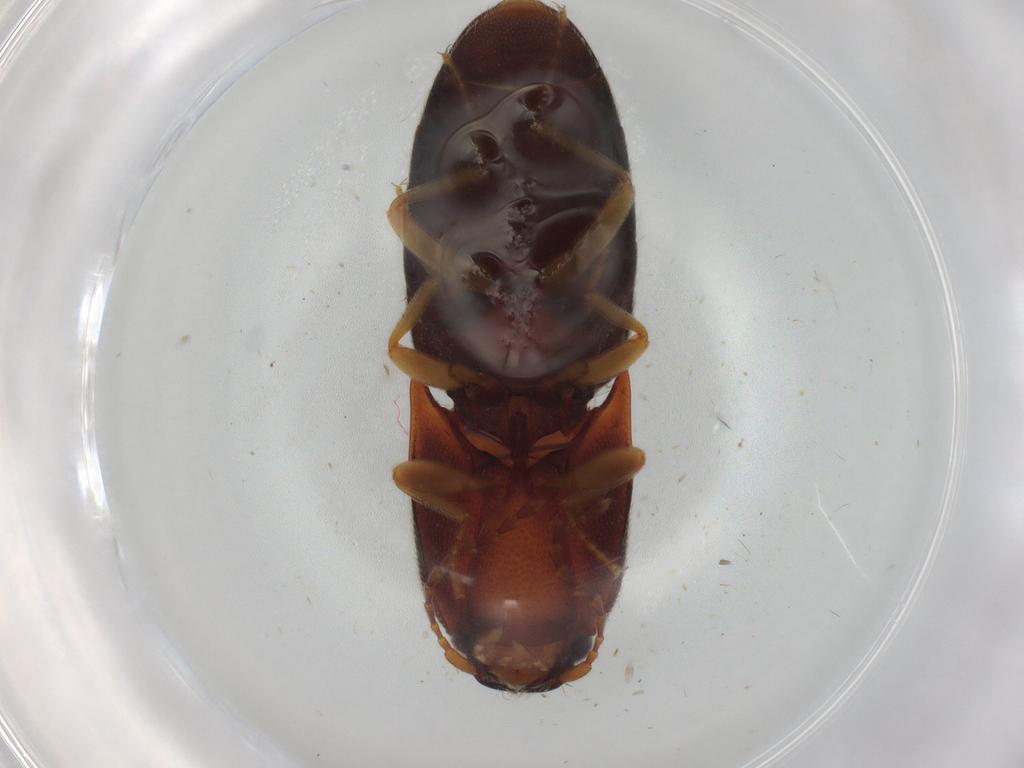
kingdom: Animalia
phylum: Arthropoda
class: Insecta
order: Coleoptera
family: Elateridae
